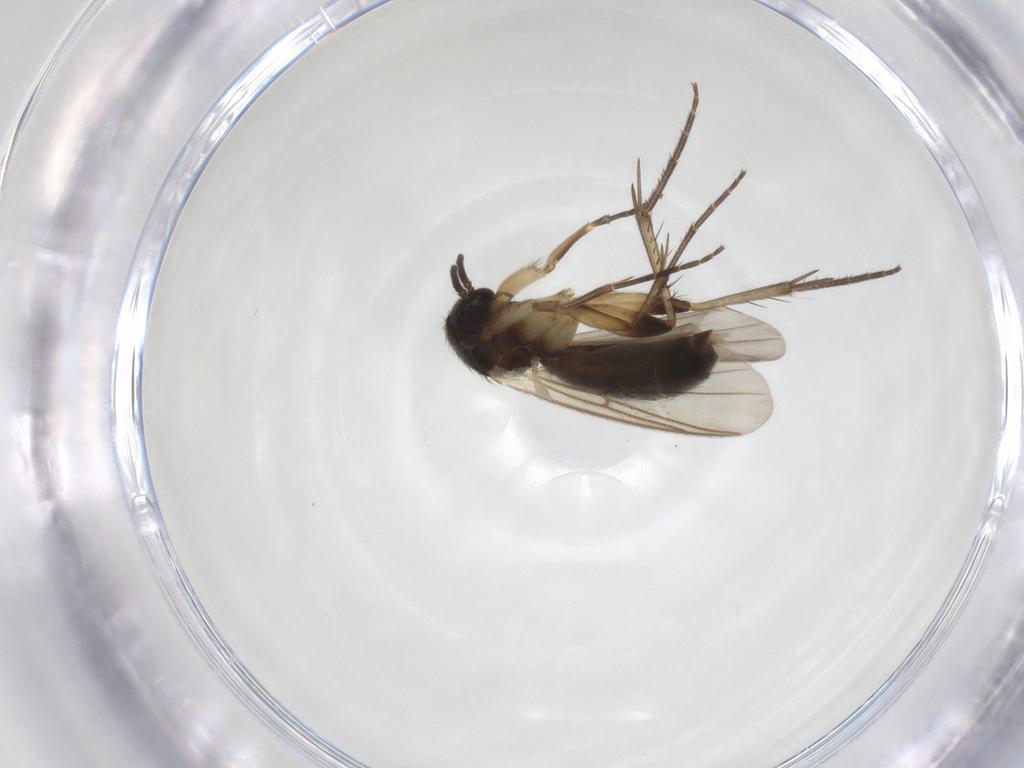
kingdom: Animalia
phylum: Arthropoda
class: Insecta
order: Diptera
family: Mycetophilidae
